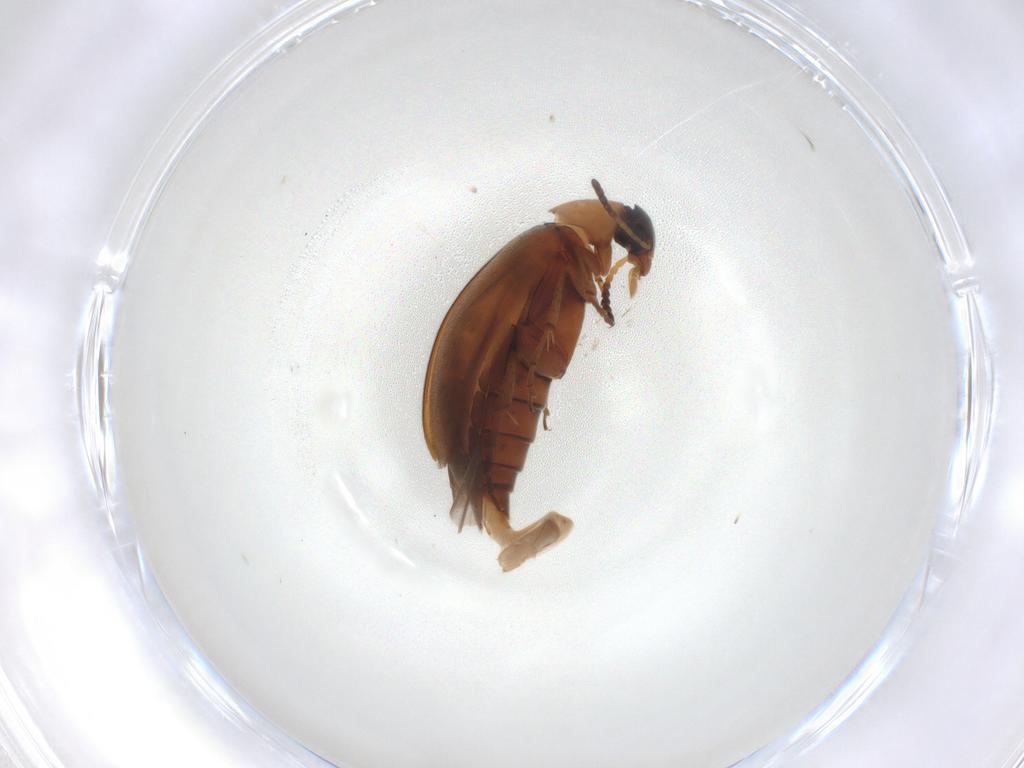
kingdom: Animalia
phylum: Arthropoda
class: Insecta
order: Coleoptera
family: Scraptiidae
